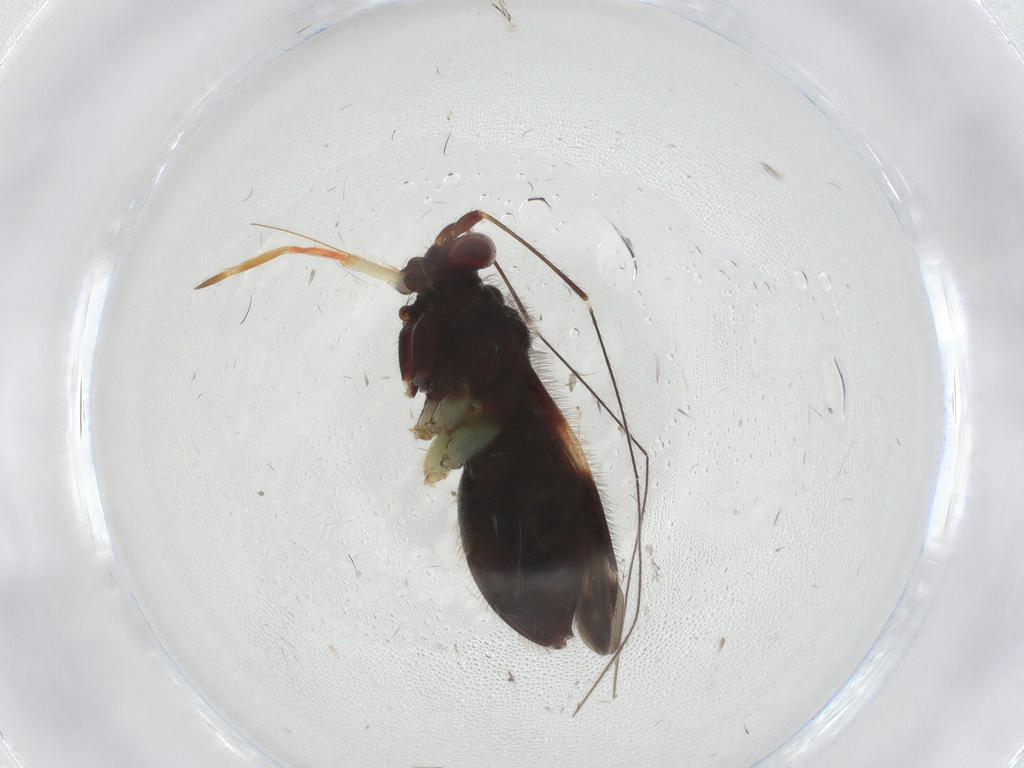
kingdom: Animalia
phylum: Arthropoda
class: Insecta
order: Hemiptera
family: Miridae
